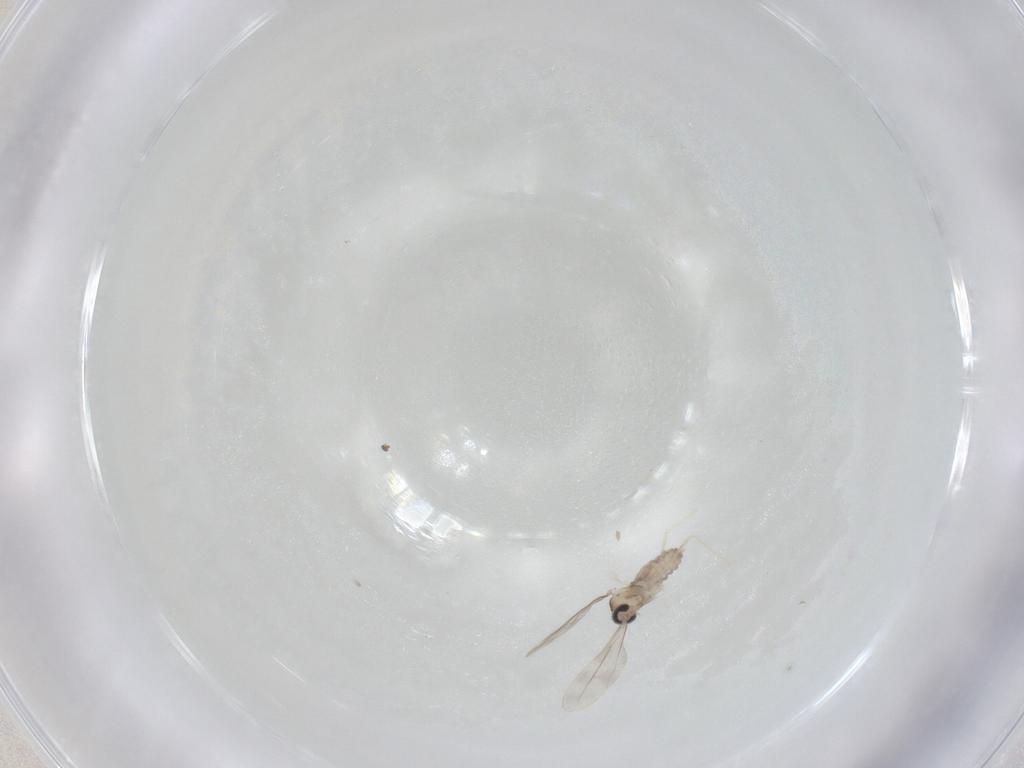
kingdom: Animalia
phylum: Arthropoda
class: Insecta
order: Diptera
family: Cecidomyiidae
